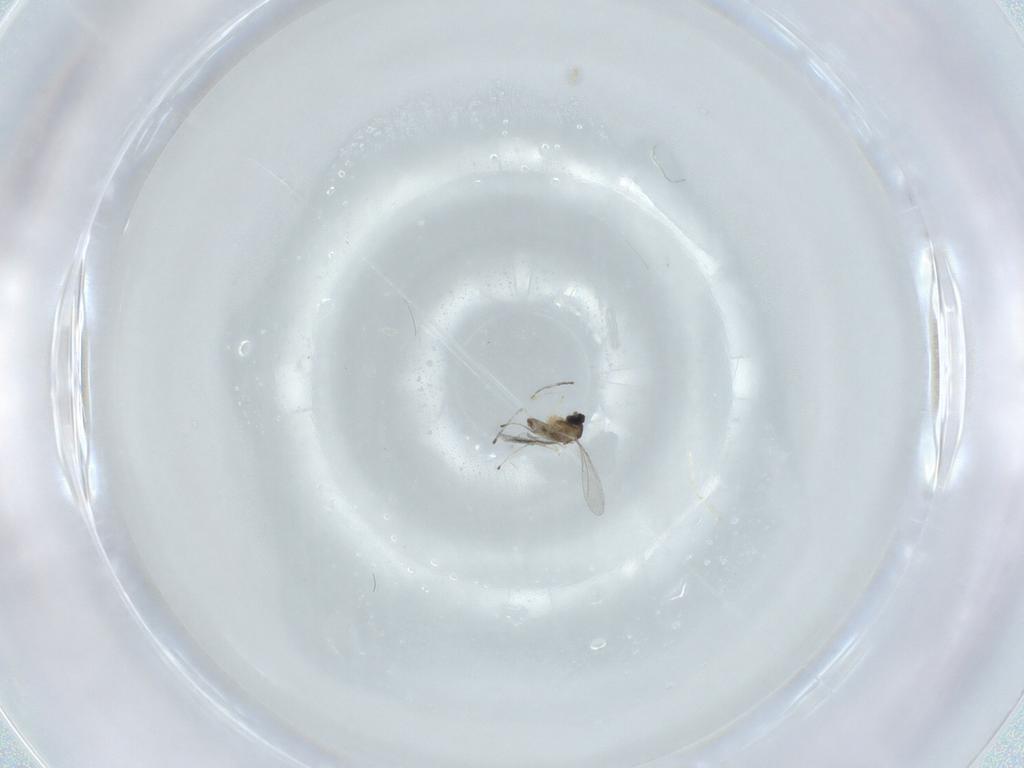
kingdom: Animalia
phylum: Arthropoda
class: Insecta
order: Diptera
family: Cecidomyiidae
